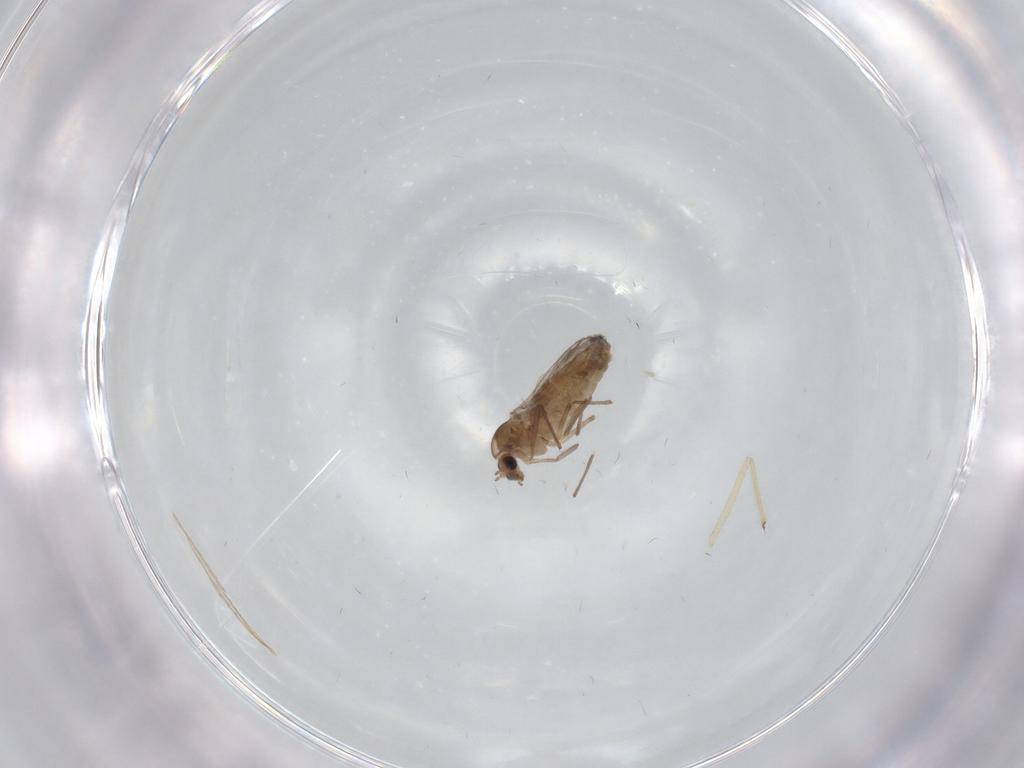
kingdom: Animalia
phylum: Arthropoda
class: Insecta
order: Diptera
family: Chironomidae
